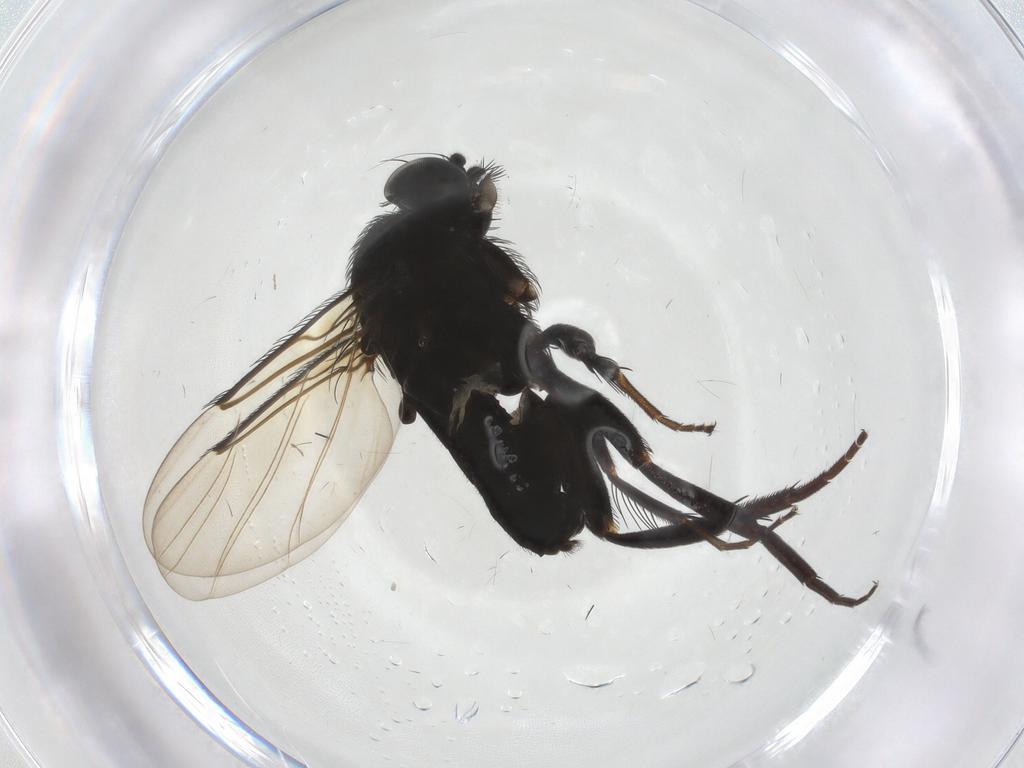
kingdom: Animalia
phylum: Arthropoda
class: Insecta
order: Diptera
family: Phoridae
